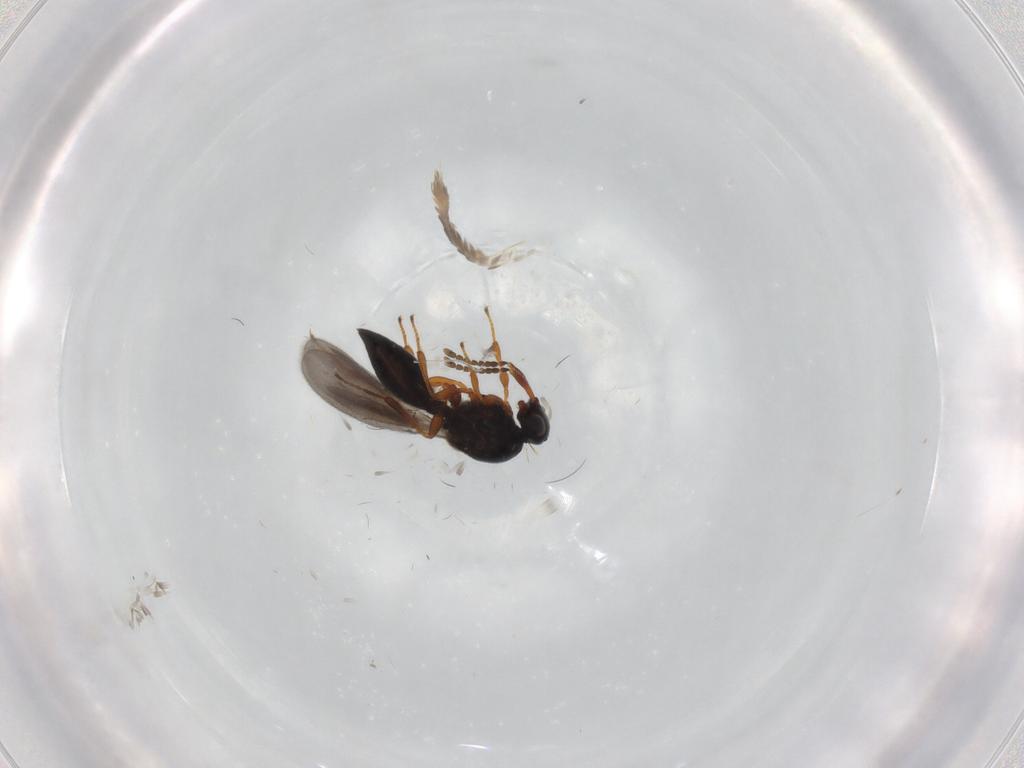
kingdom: Animalia
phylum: Arthropoda
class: Insecta
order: Hymenoptera
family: Platygastridae
